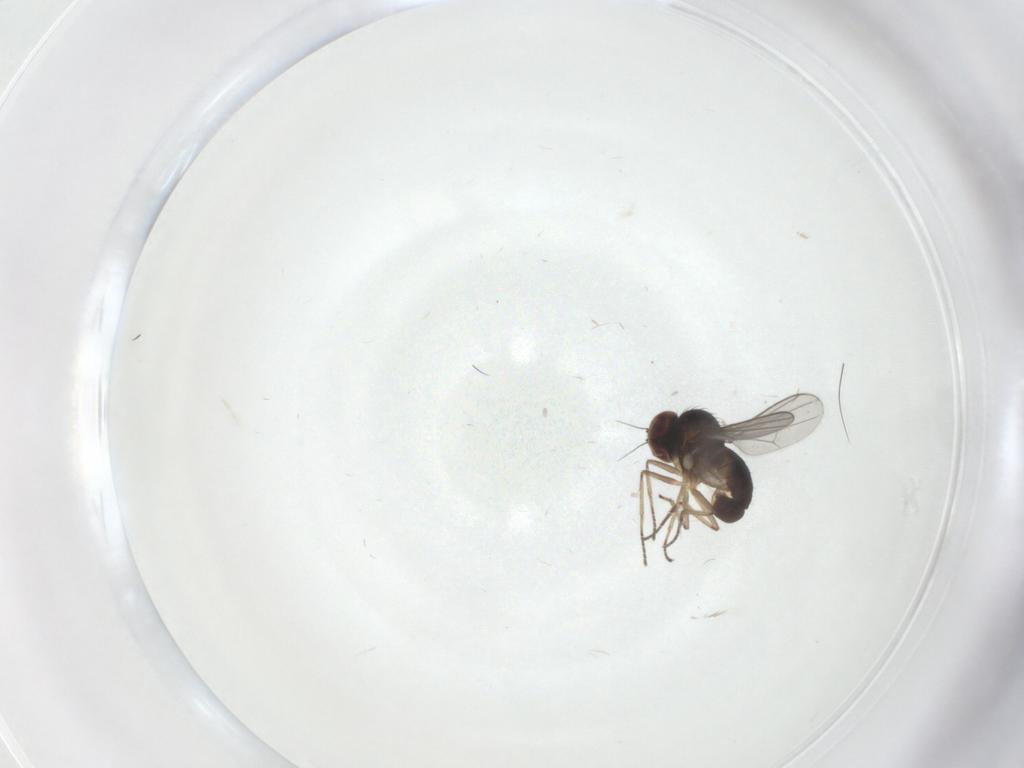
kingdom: Animalia
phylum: Arthropoda
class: Insecta
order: Diptera
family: Dolichopodidae
